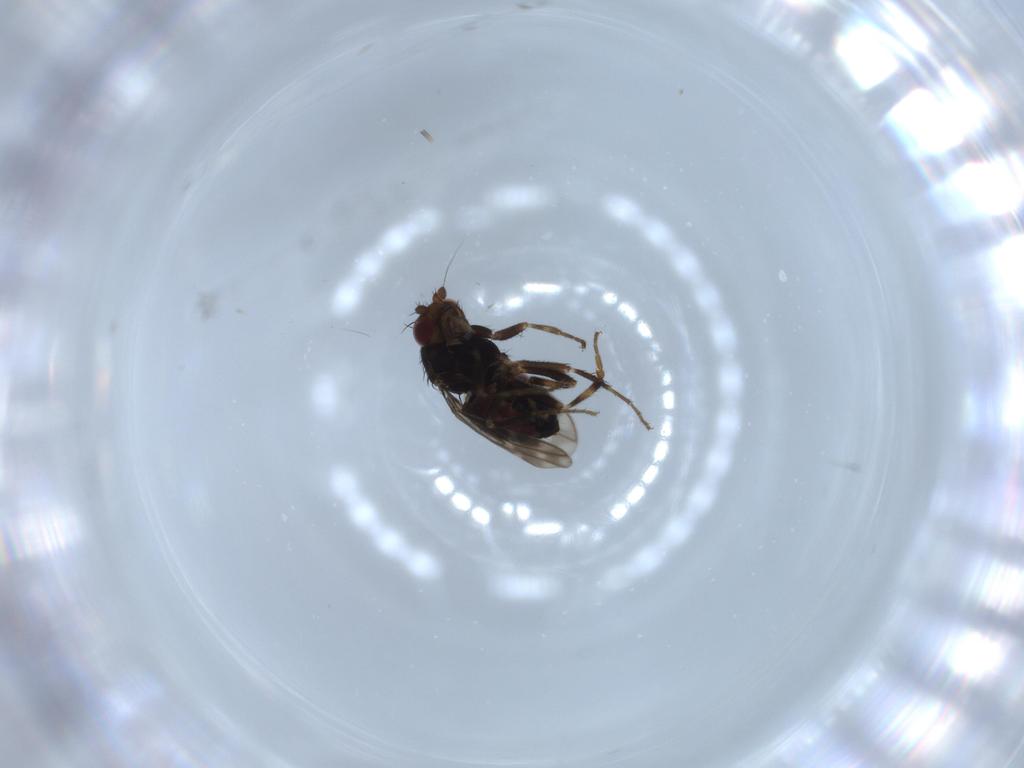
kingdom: Animalia
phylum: Arthropoda
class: Insecta
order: Diptera
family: Sphaeroceridae
